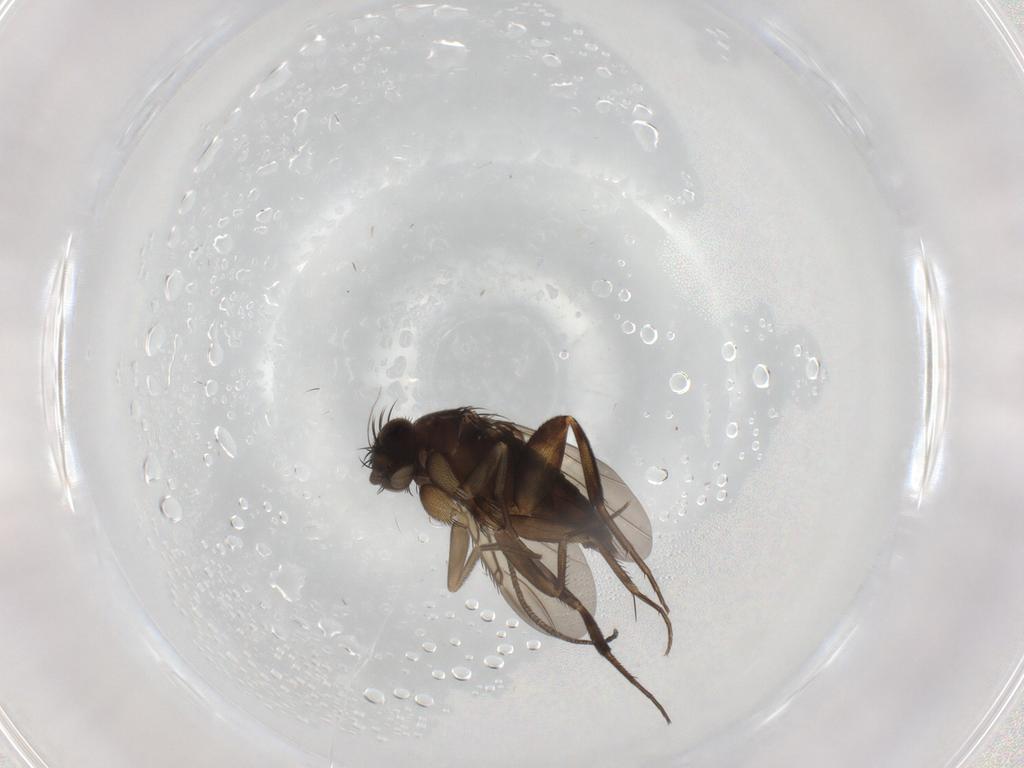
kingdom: Animalia
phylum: Arthropoda
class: Insecta
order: Diptera
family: Phoridae
